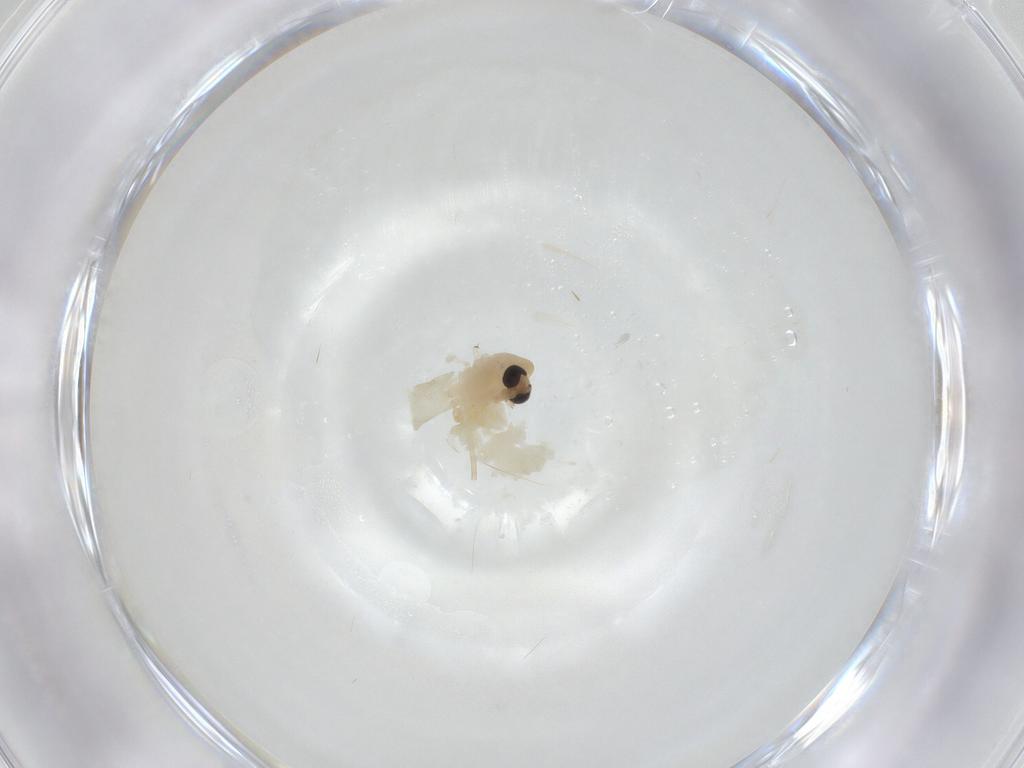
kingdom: Animalia
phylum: Arthropoda
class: Insecta
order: Diptera
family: Chironomidae
